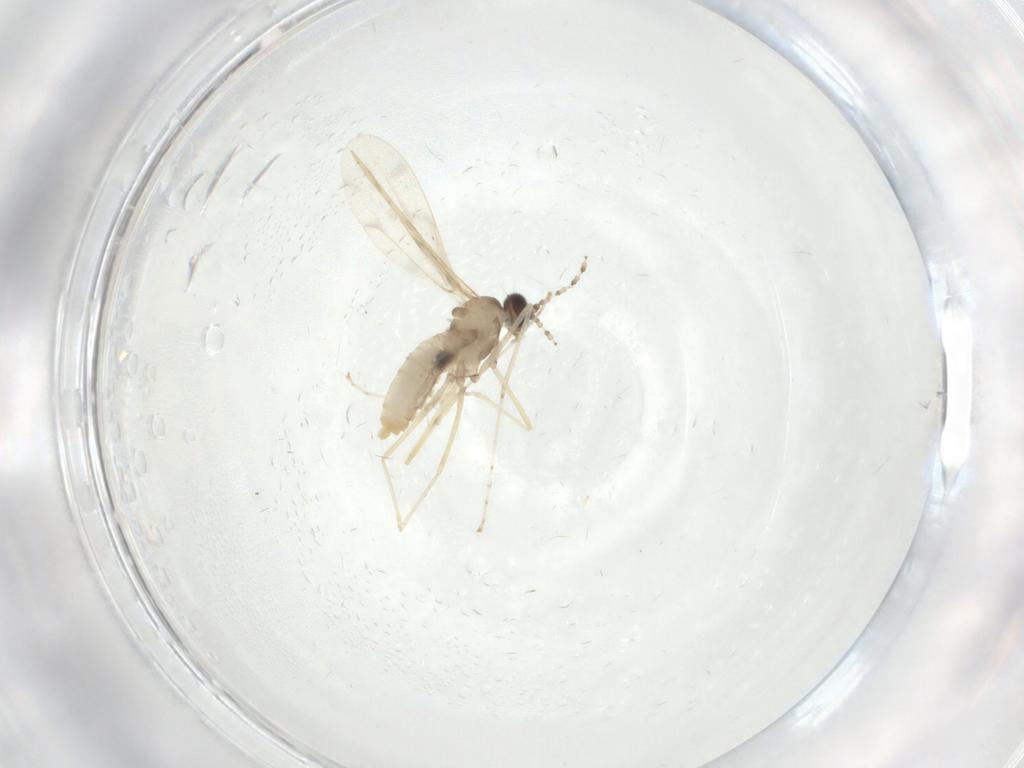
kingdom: Animalia
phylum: Arthropoda
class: Insecta
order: Diptera
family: Cecidomyiidae
